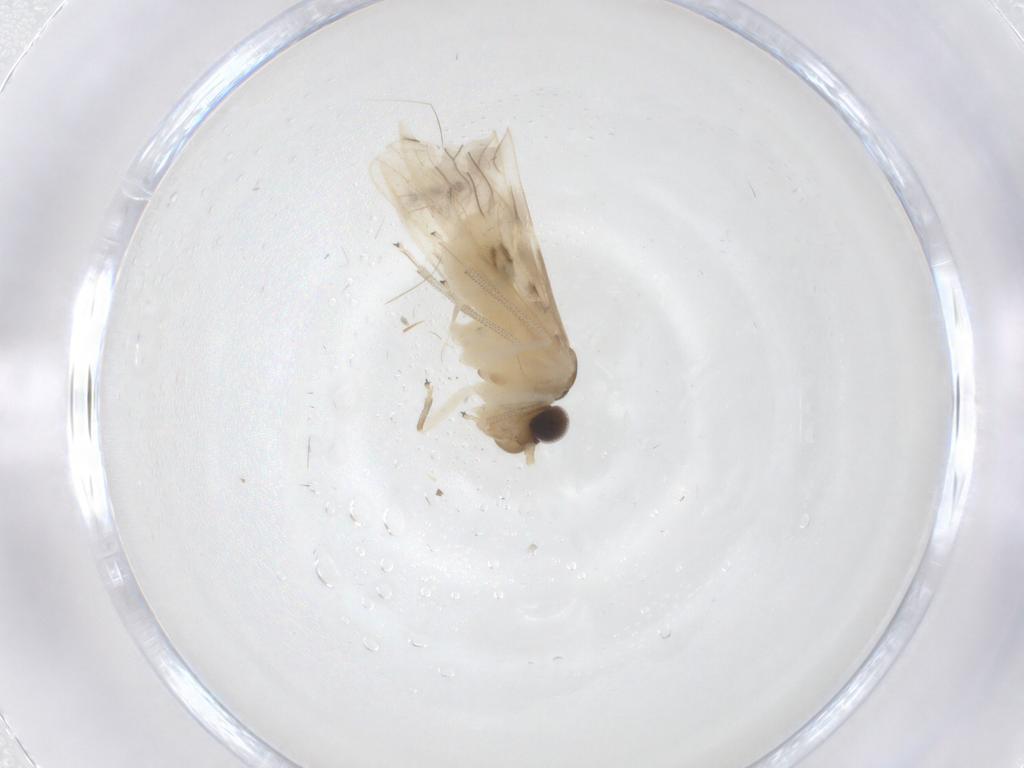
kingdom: Animalia
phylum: Arthropoda
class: Insecta
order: Psocodea
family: Caeciliusidae
